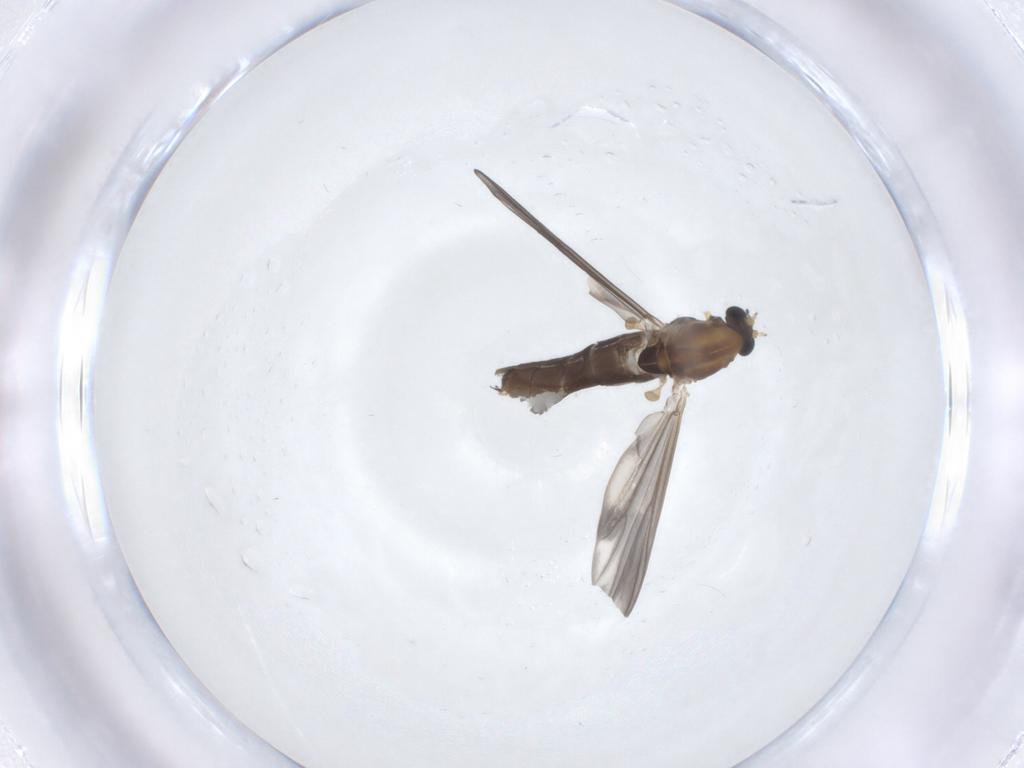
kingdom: Animalia
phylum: Arthropoda
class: Insecta
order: Diptera
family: Chironomidae
